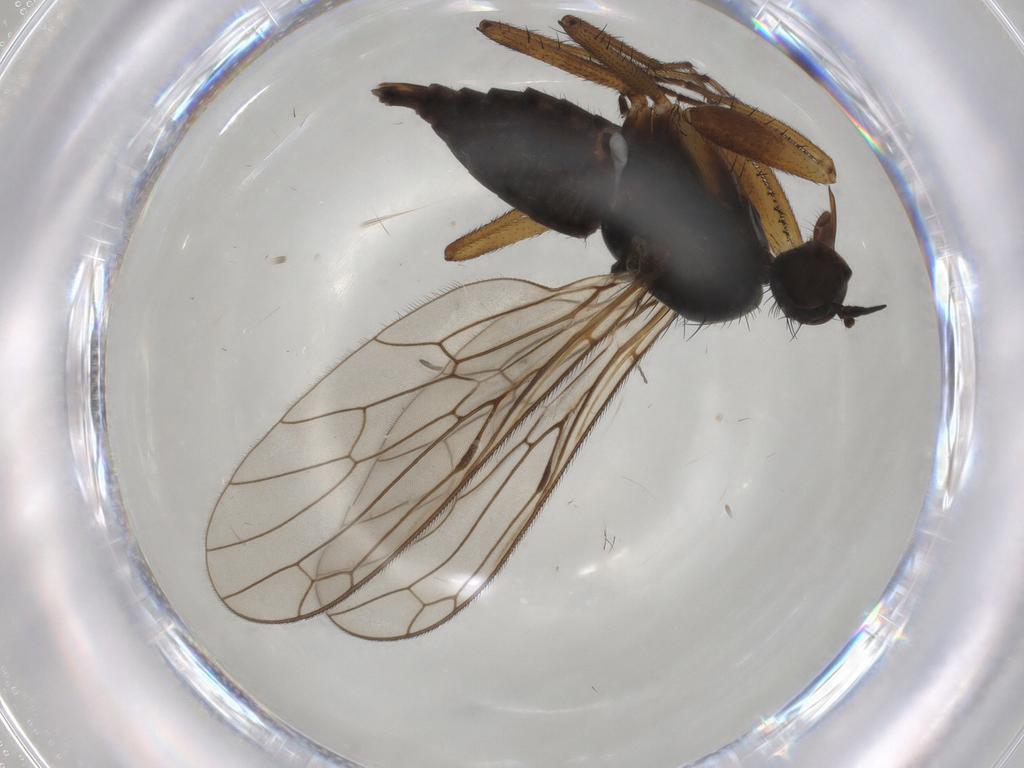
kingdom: Animalia
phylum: Arthropoda
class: Insecta
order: Diptera
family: Empididae
